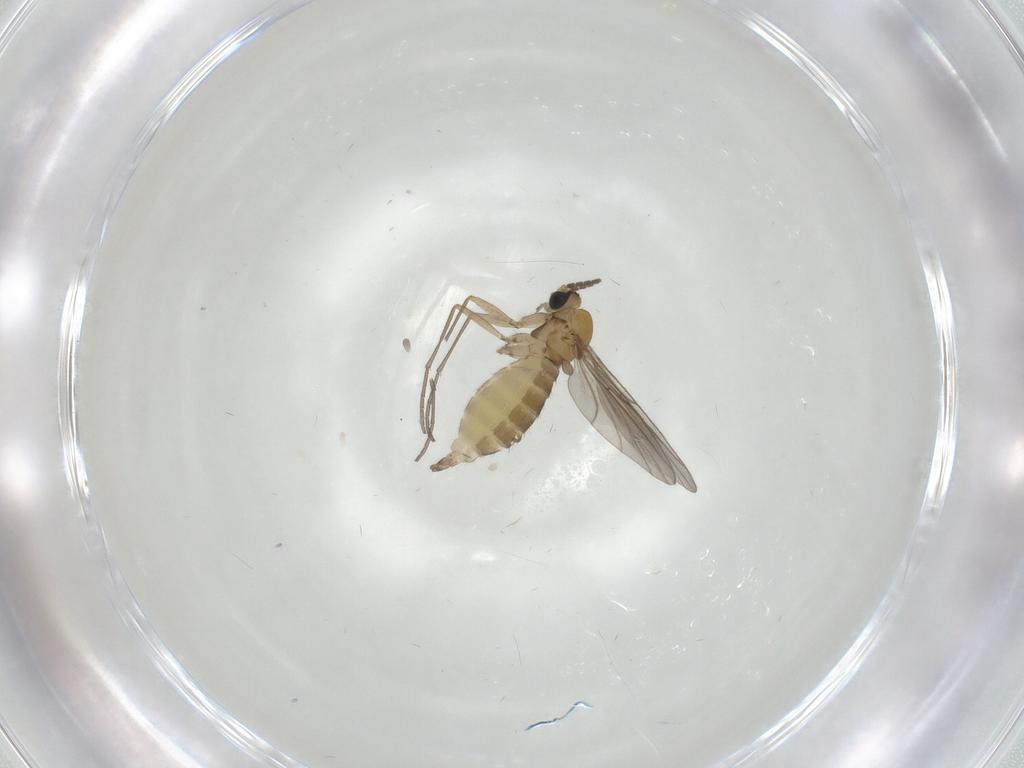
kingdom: Animalia
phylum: Arthropoda
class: Insecta
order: Diptera
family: Sciaridae
